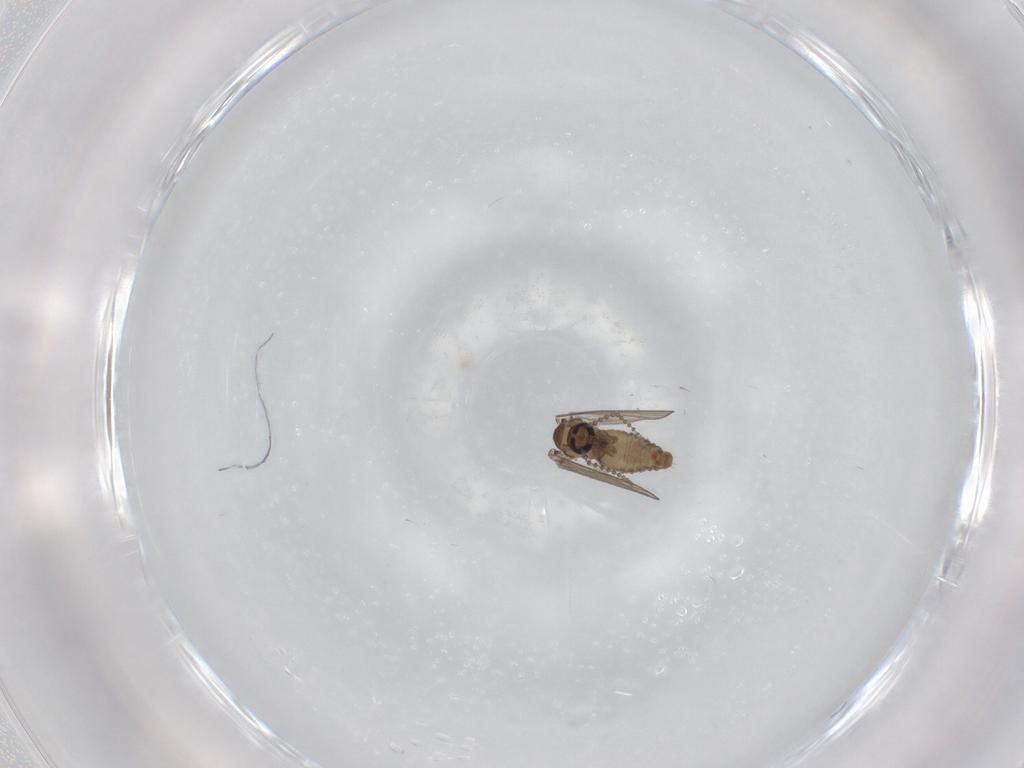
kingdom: Animalia
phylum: Arthropoda
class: Insecta
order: Diptera
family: Psychodidae
